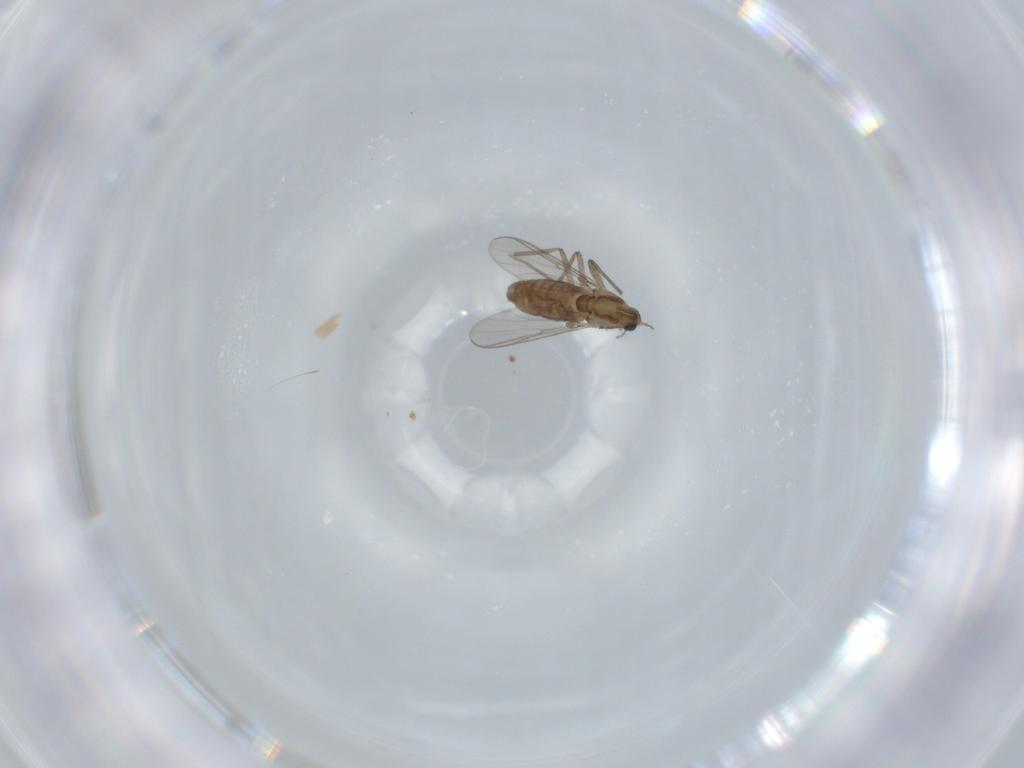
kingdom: Animalia
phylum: Arthropoda
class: Insecta
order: Diptera
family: Chironomidae
